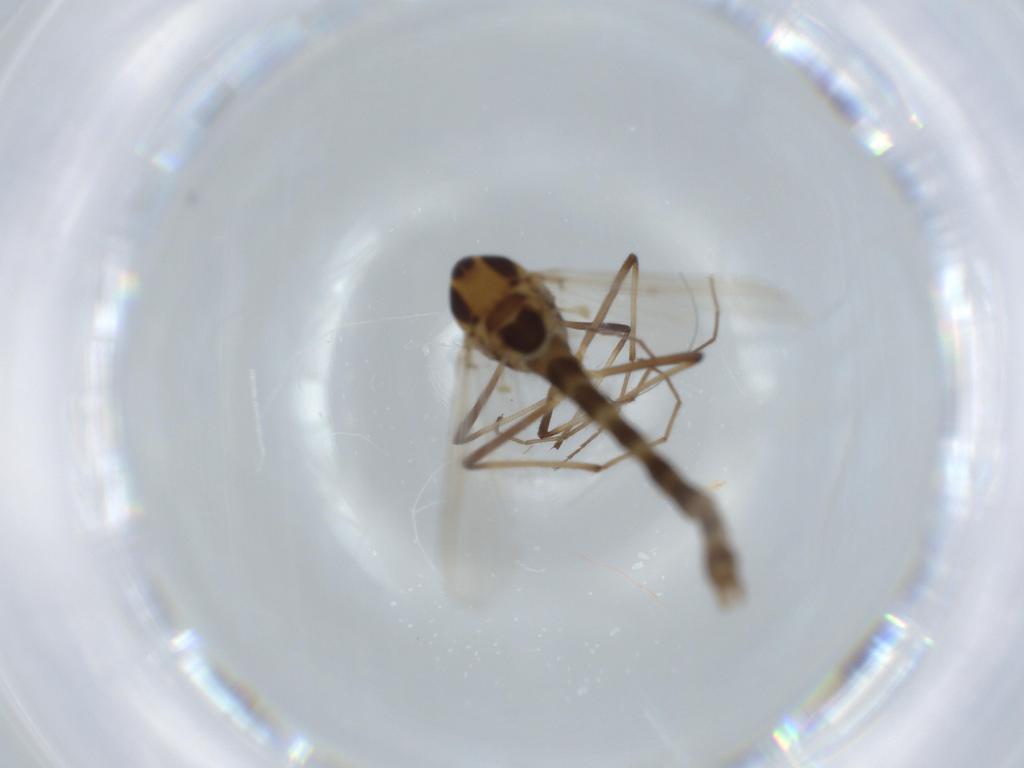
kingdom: Animalia
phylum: Arthropoda
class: Insecta
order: Diptera
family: Chironomidae
